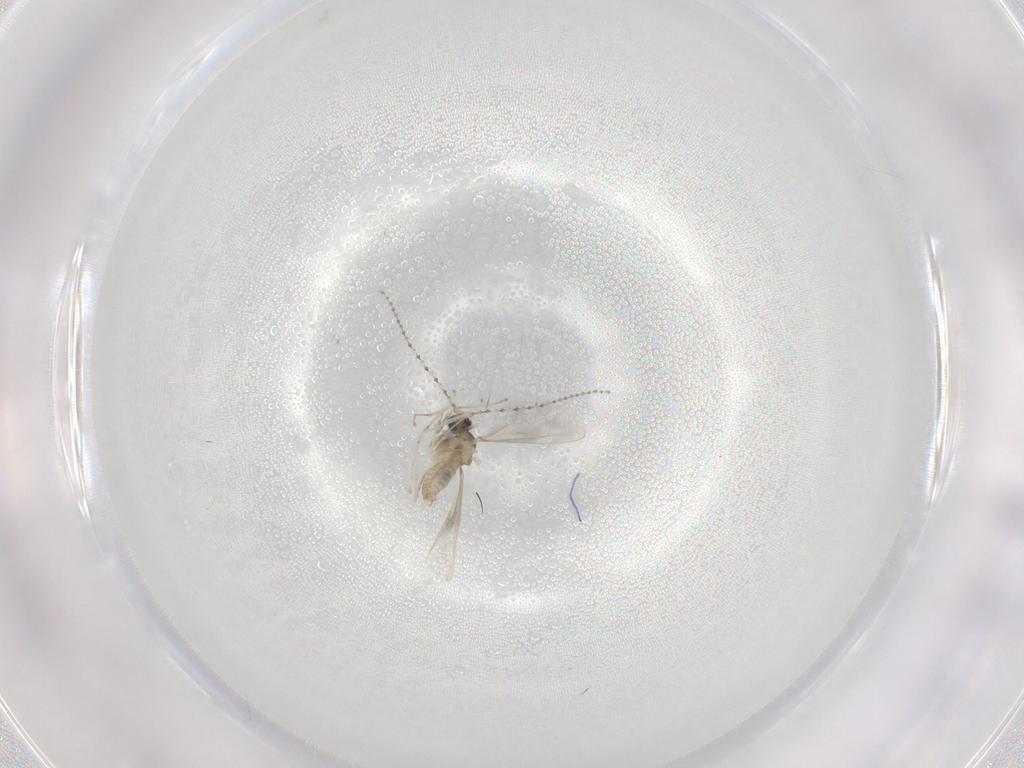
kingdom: Animalia
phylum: Arthropoda
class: Insecta
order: Diptera
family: Cecidomyiidae
